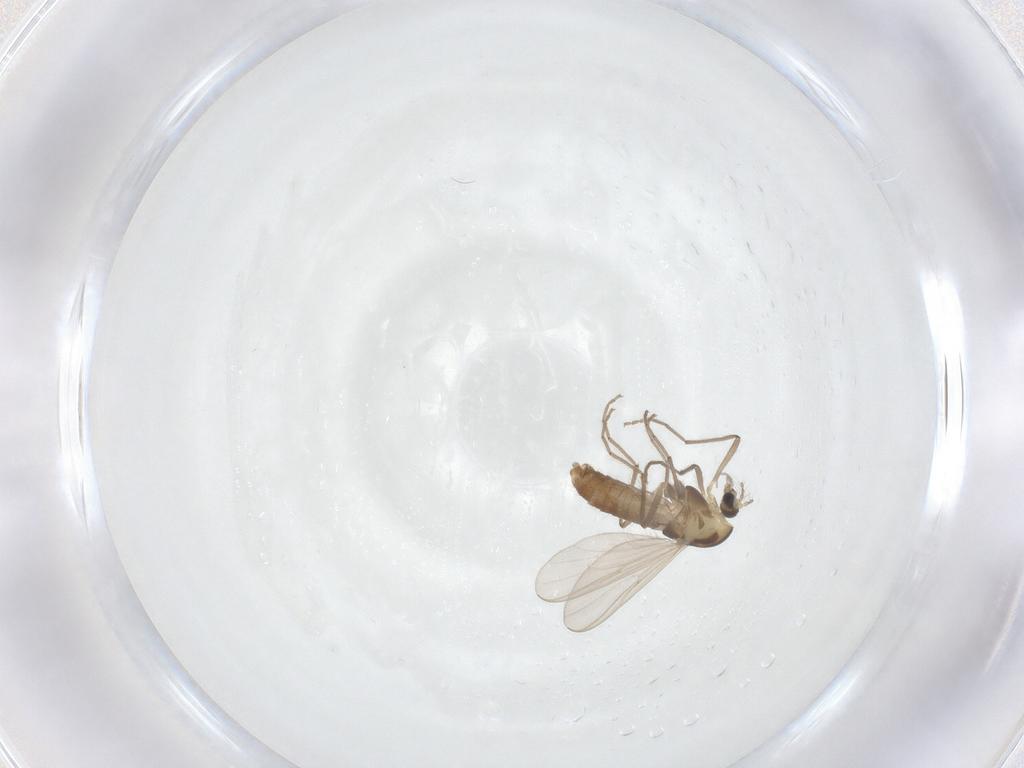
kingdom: Animalia
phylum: Arthropoda
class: Insecta
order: Diptera
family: Chironomidae
